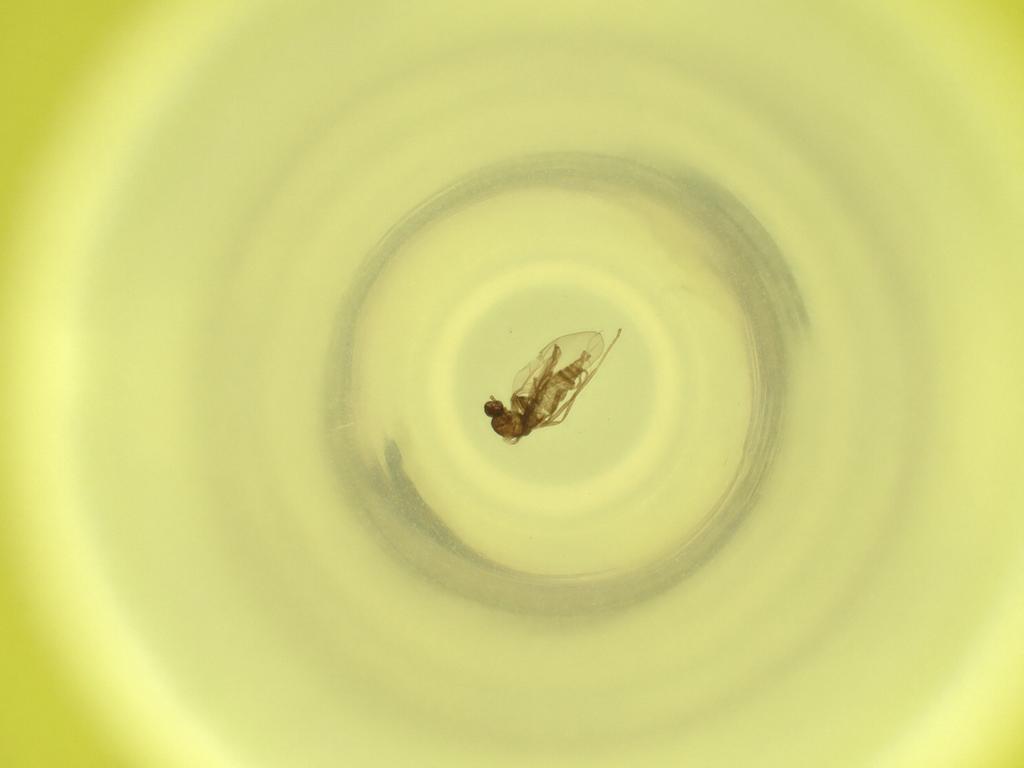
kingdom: Animalia
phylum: Arthropoda
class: Insecta
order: Diptera
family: Cecidomyiidae
